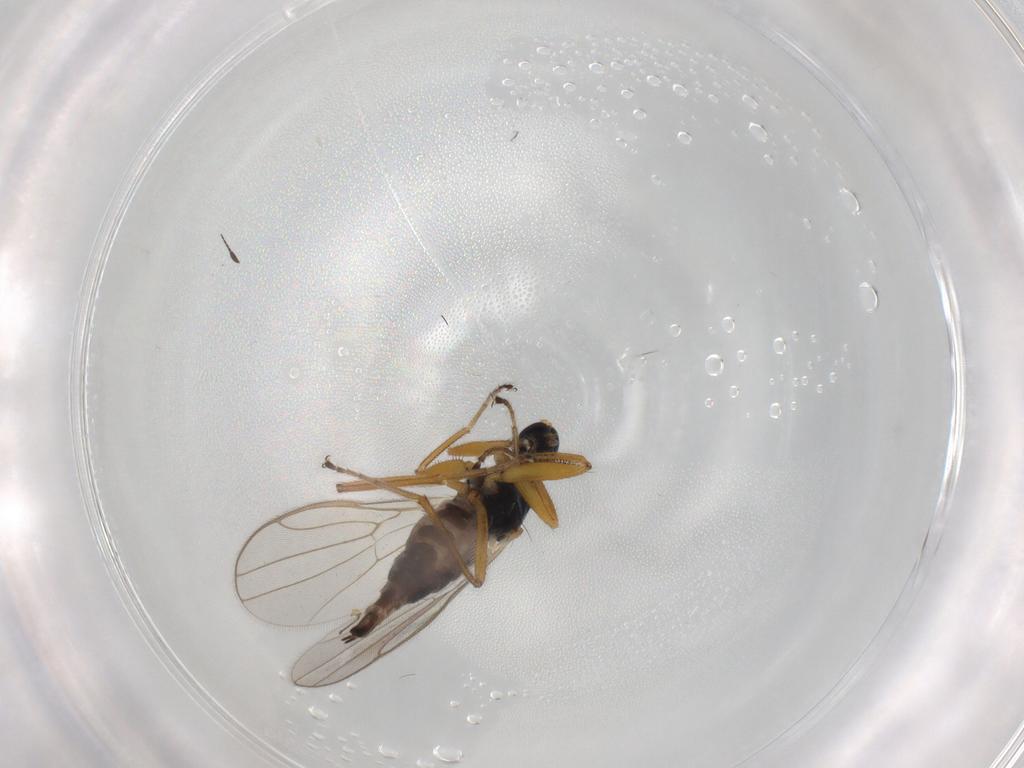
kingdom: Animalia
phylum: Arthropoda
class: Insecta
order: Diptera
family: Hybotidae
